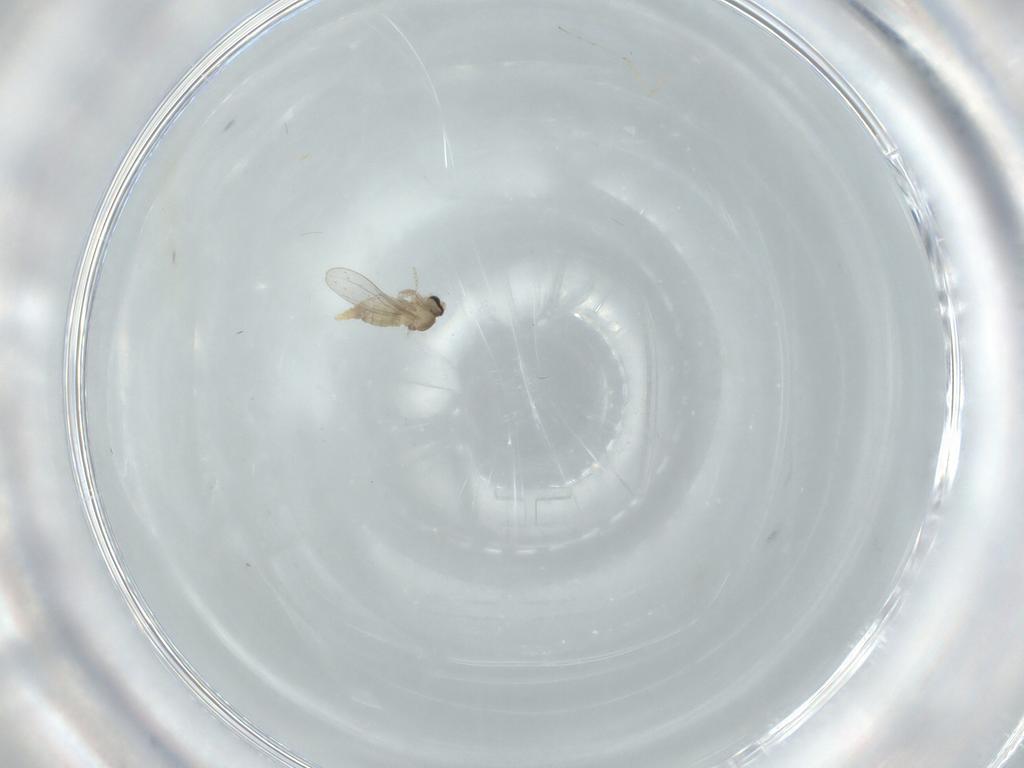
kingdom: Animalia
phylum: Arthropoda
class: Insecta
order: Diptera
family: Cecidomyiidae
